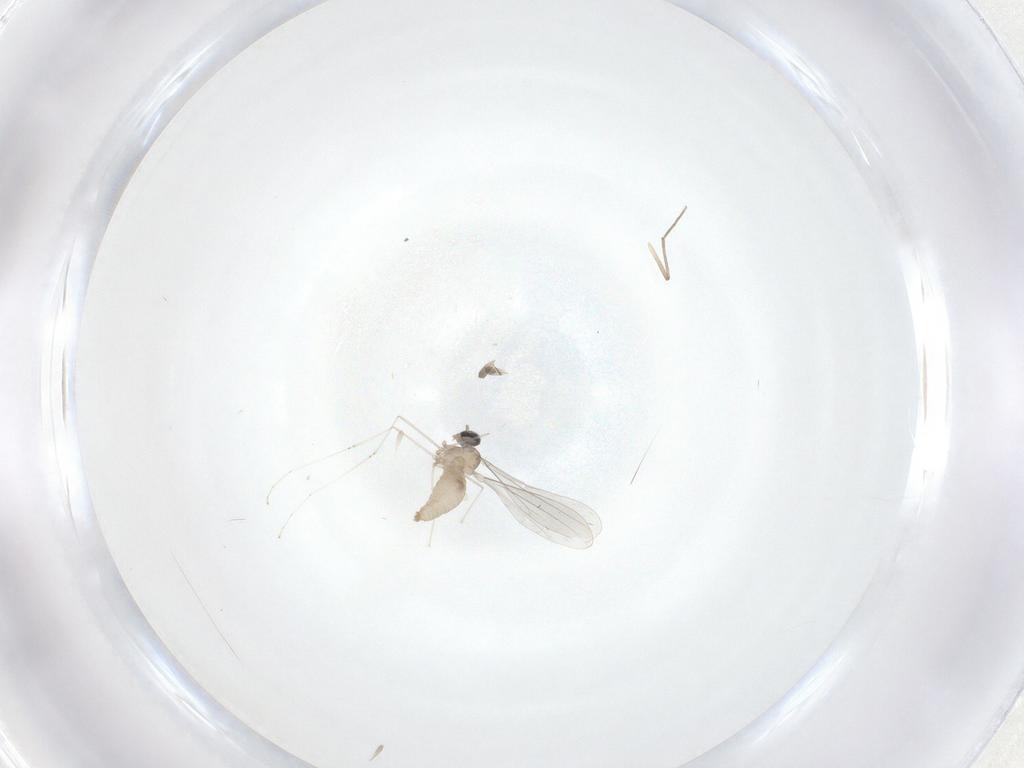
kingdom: Animalia
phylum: Arthropoda
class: Insecta
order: Diptera
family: Cecidomyiidae
